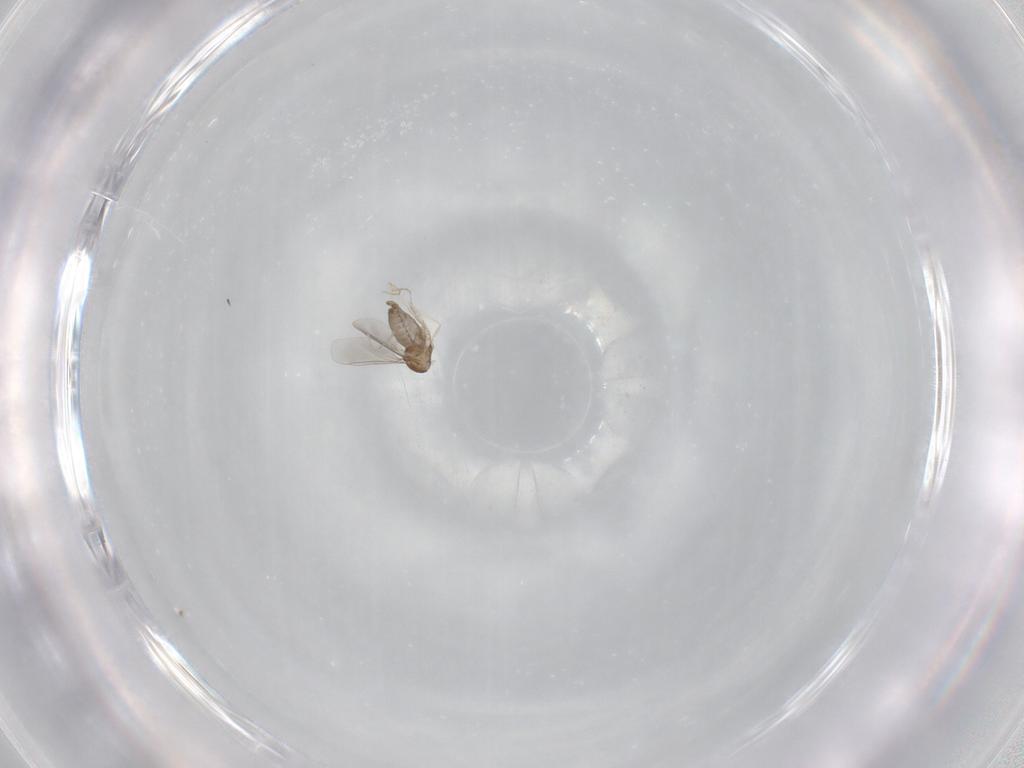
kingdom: Animalia
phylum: Arthropoda
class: Insecta
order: Diptera
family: Cecidomyiidae
